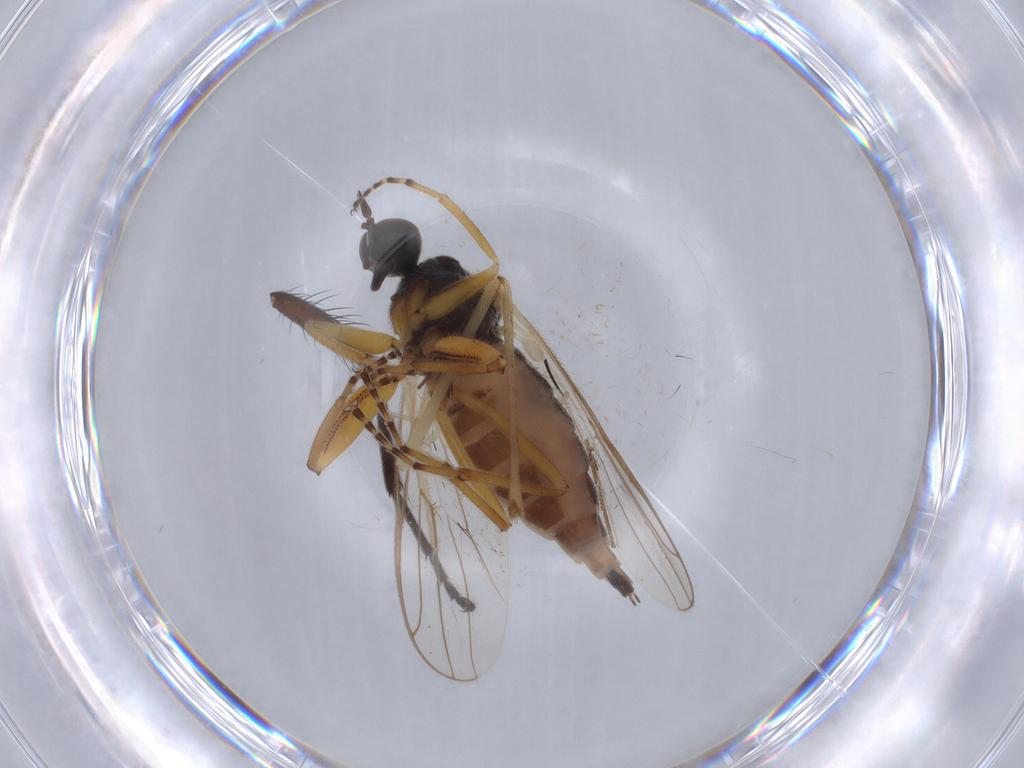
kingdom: Animalia
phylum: Arthropoda
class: Insecta
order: Diptera
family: Hybotidae
